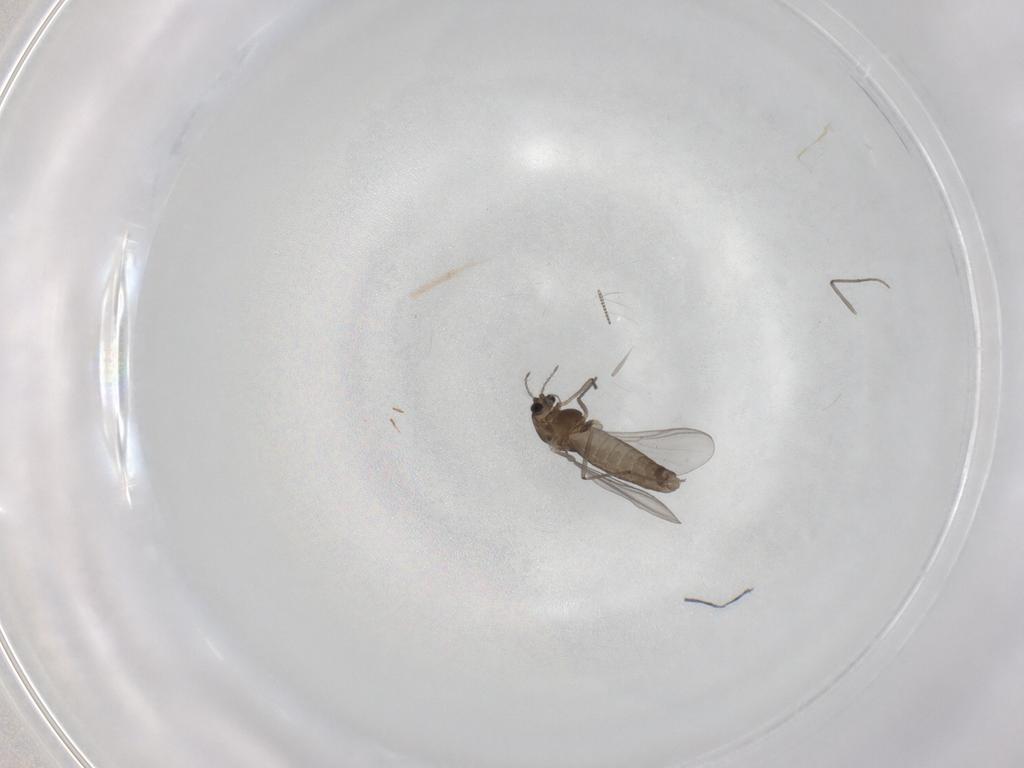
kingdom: Animalia
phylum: Arthropoda
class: Insecta
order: Diptera
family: Chironomidae
